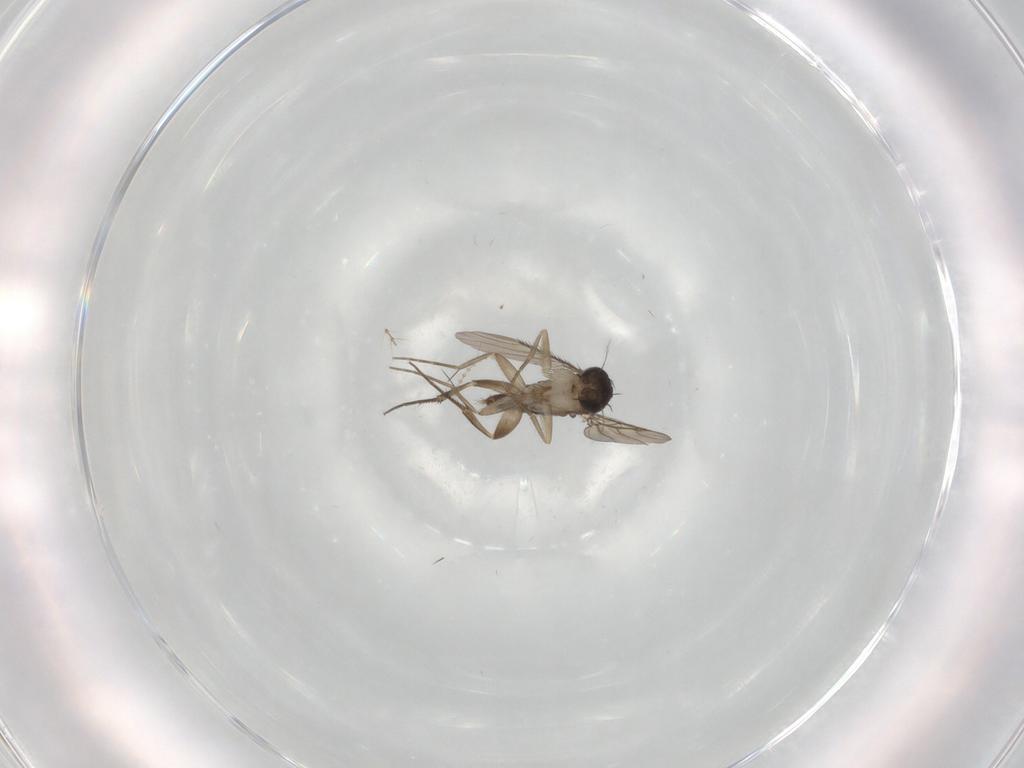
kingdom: Animalia
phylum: Arthropoda
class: Insecta
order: Diptera
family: Phoridae
